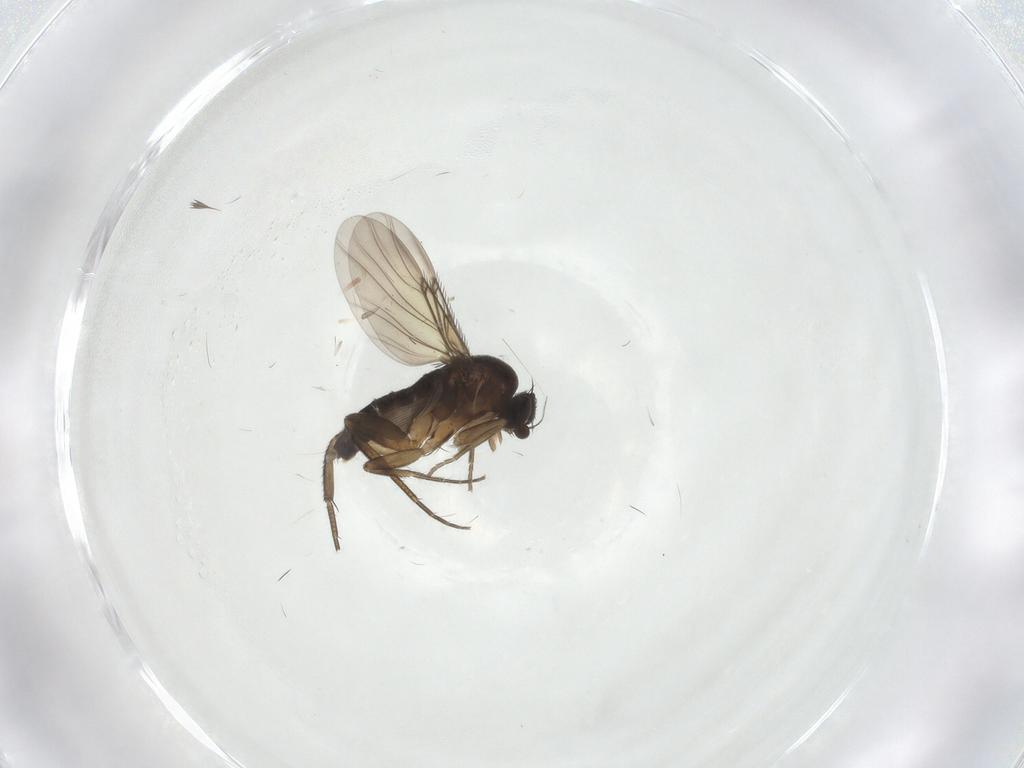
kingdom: Animalia
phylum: Arthropoda
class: Insecta
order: Diptera
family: Phoridae
